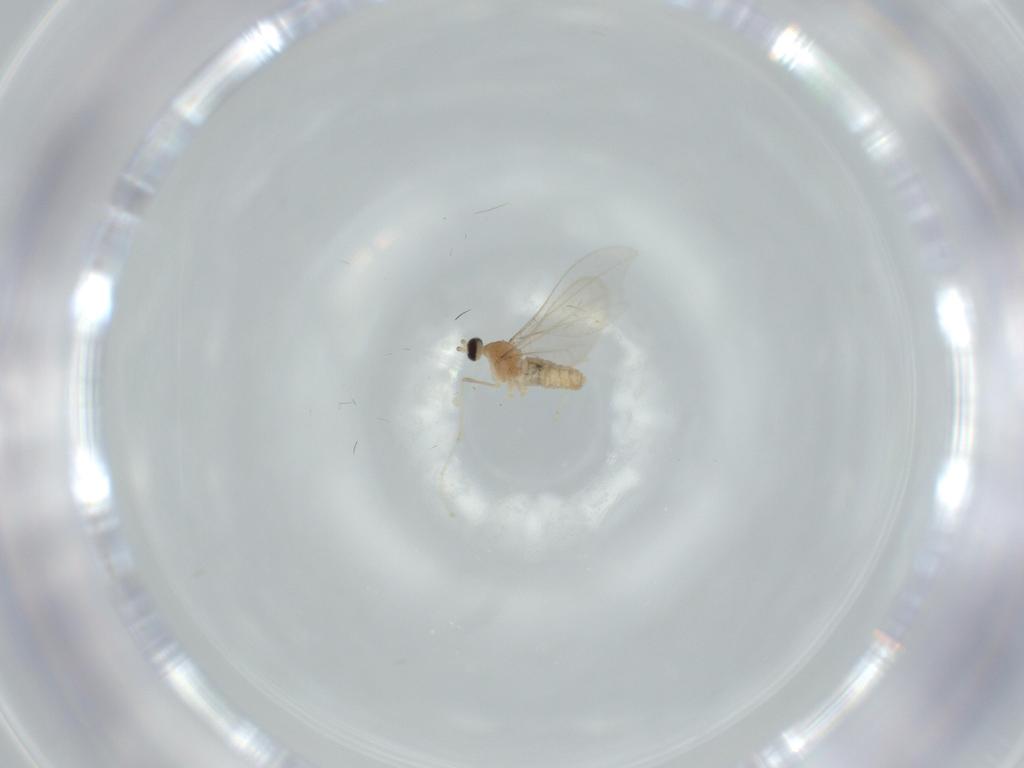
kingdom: Animalia
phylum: Arthropoda
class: Insecta
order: Diptera
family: Cecidomyiidae
